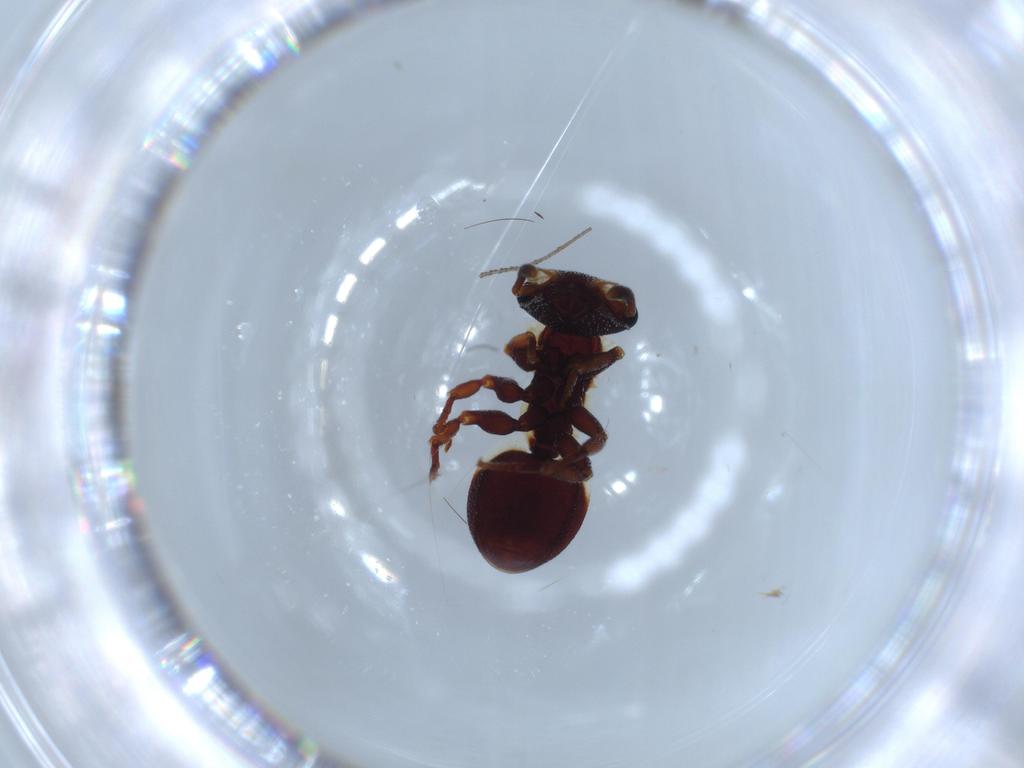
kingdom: Animalia
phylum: Arthropoda
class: Insecta
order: Hymenoptera
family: Formicidae
